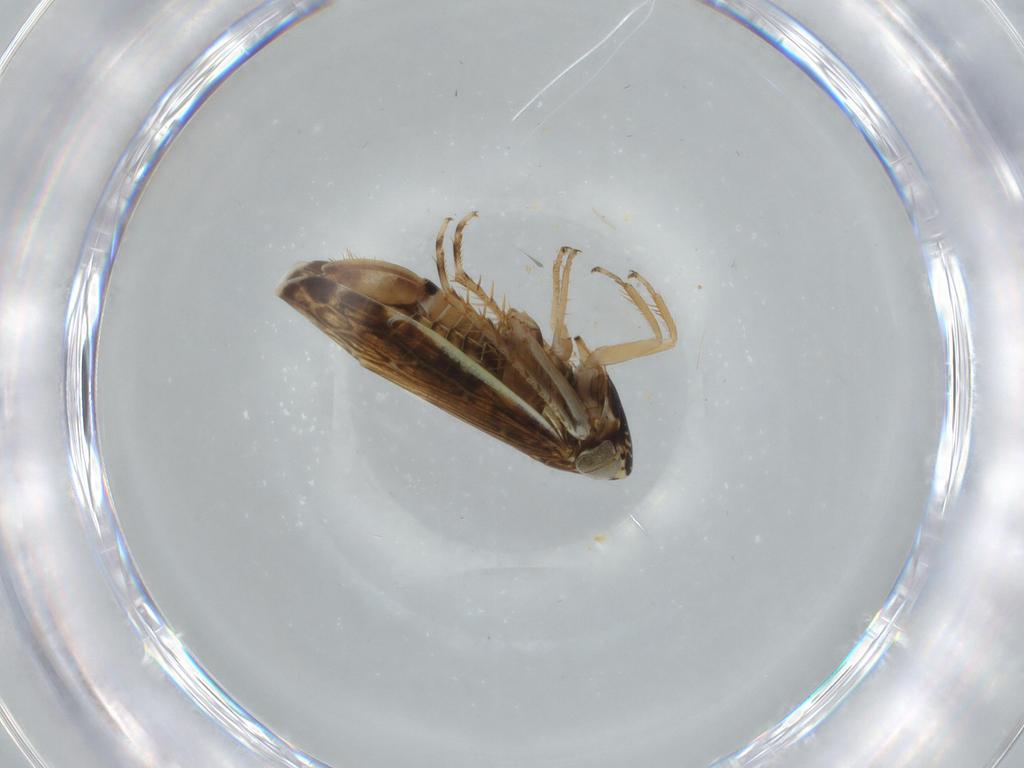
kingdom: Animalia
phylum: Arthropoda
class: Insecta
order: Hemiptera
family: Cicadellidae
